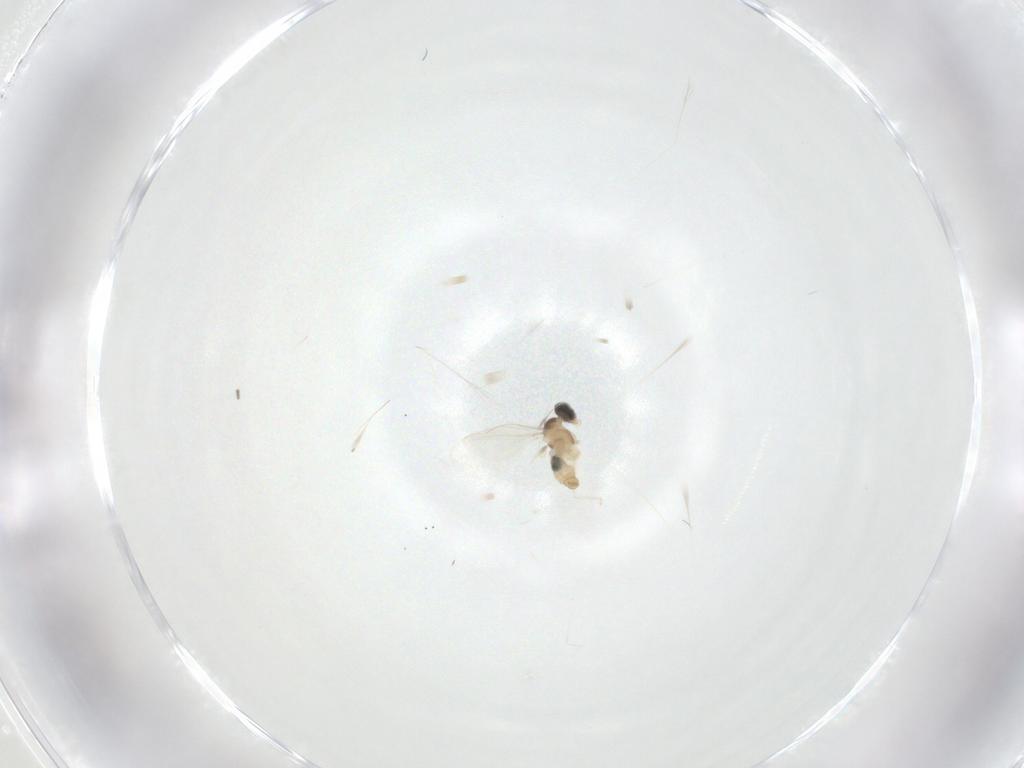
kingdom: Animalia
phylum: Arthropoda
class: Insecta
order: Diptera
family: Cecidomyiidae
